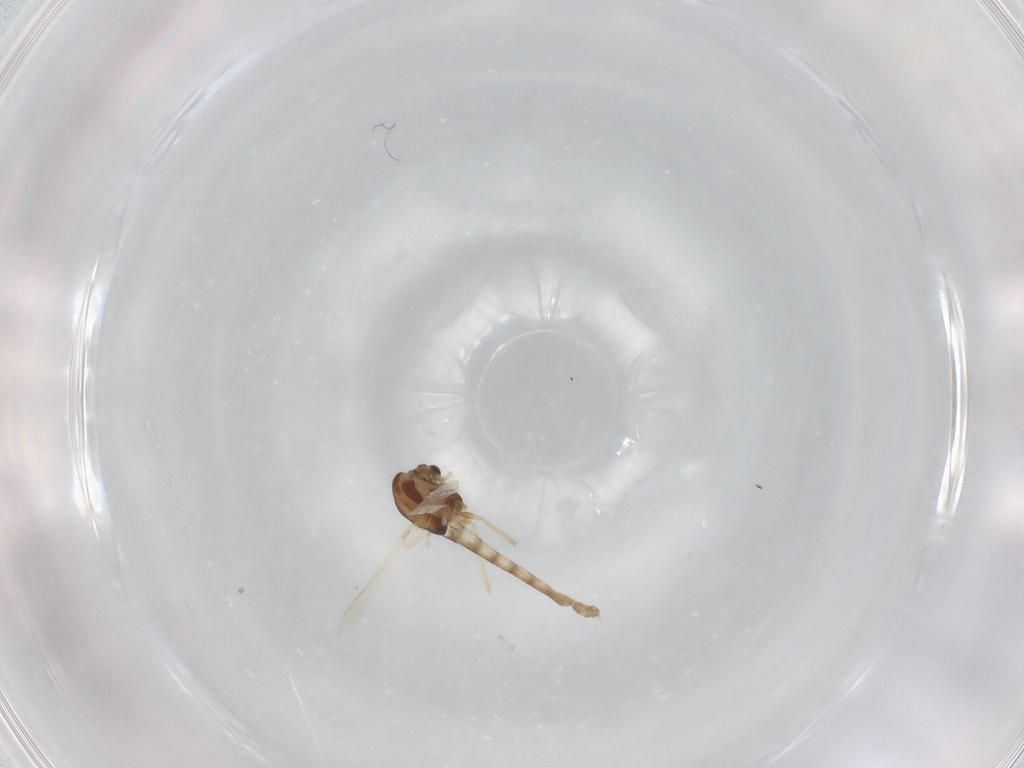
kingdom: Animalia
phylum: Arthropoda
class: Insecta
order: Diptera
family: Chironomidae
